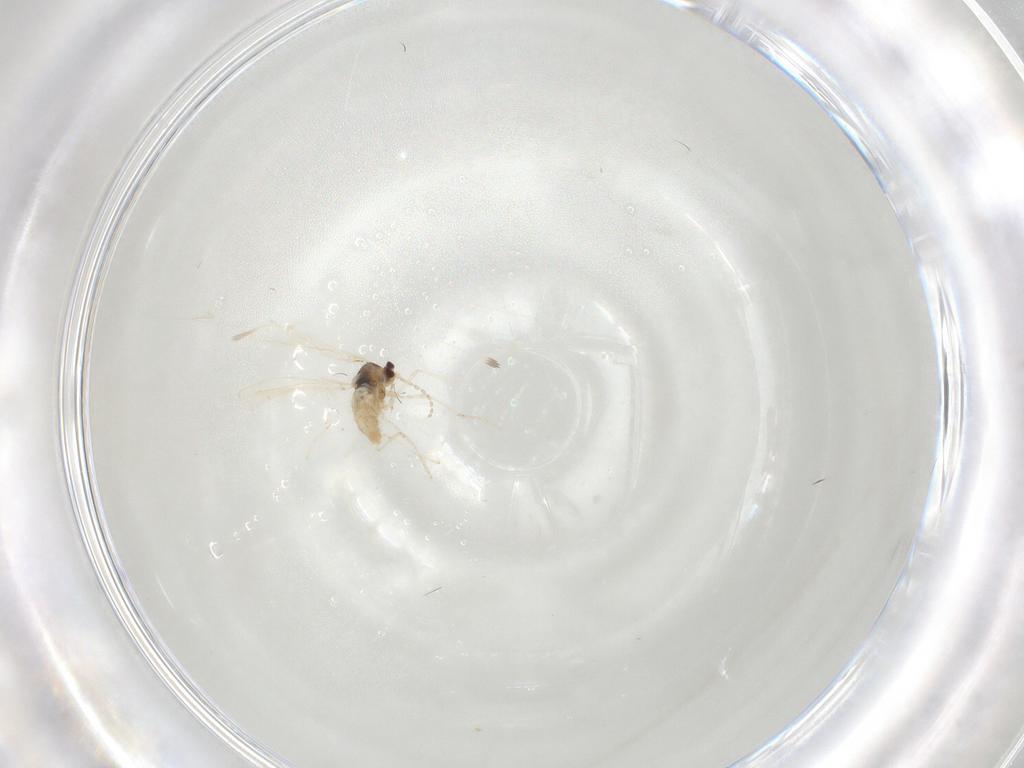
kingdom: Animalia
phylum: Arthropoda
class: Insecta
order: Diptera
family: Cecidomyiidae
